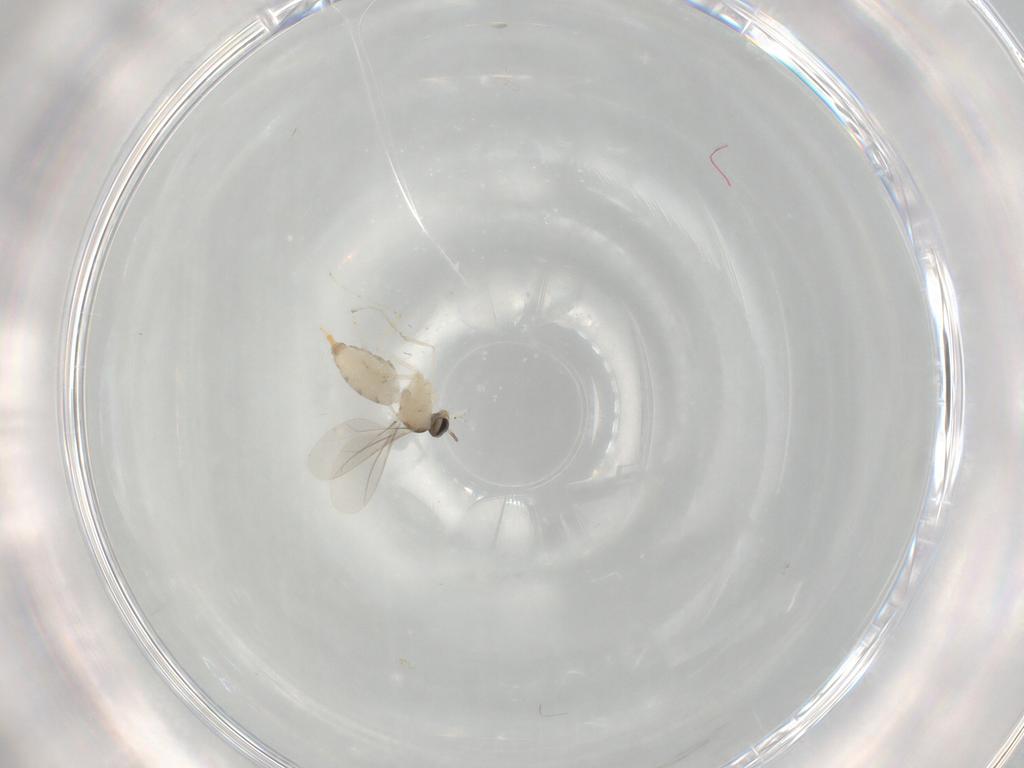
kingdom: Animalia
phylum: Arthropoda
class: Insecta
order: Diptera
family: Cecidomyiidae
